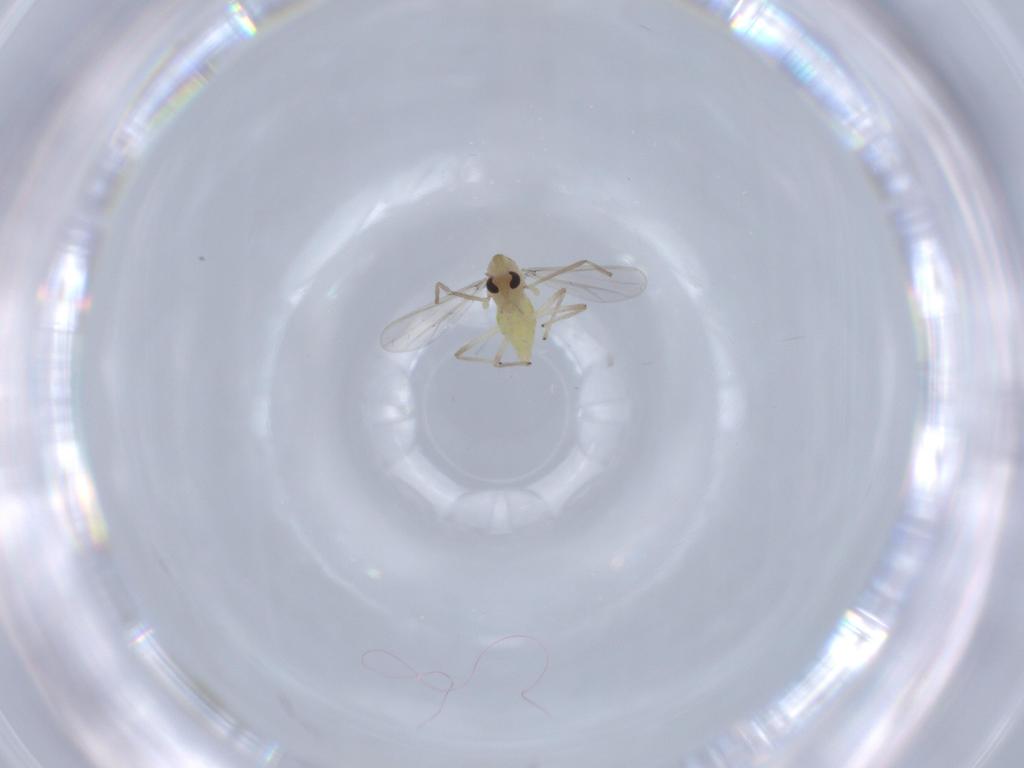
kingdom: Animalia
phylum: Arthropoda
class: Insecta
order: Diptera
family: Chironomidae
